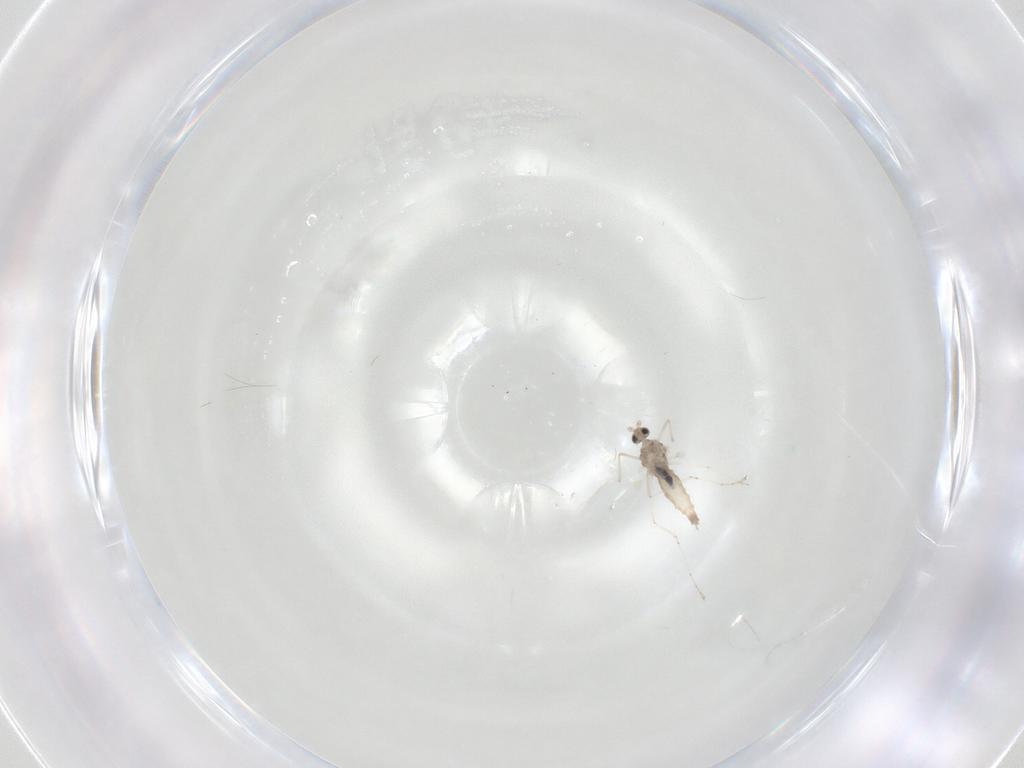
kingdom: Animalia
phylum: Arthropoda
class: Insecta
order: Diptera
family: Cecidomyiidae
